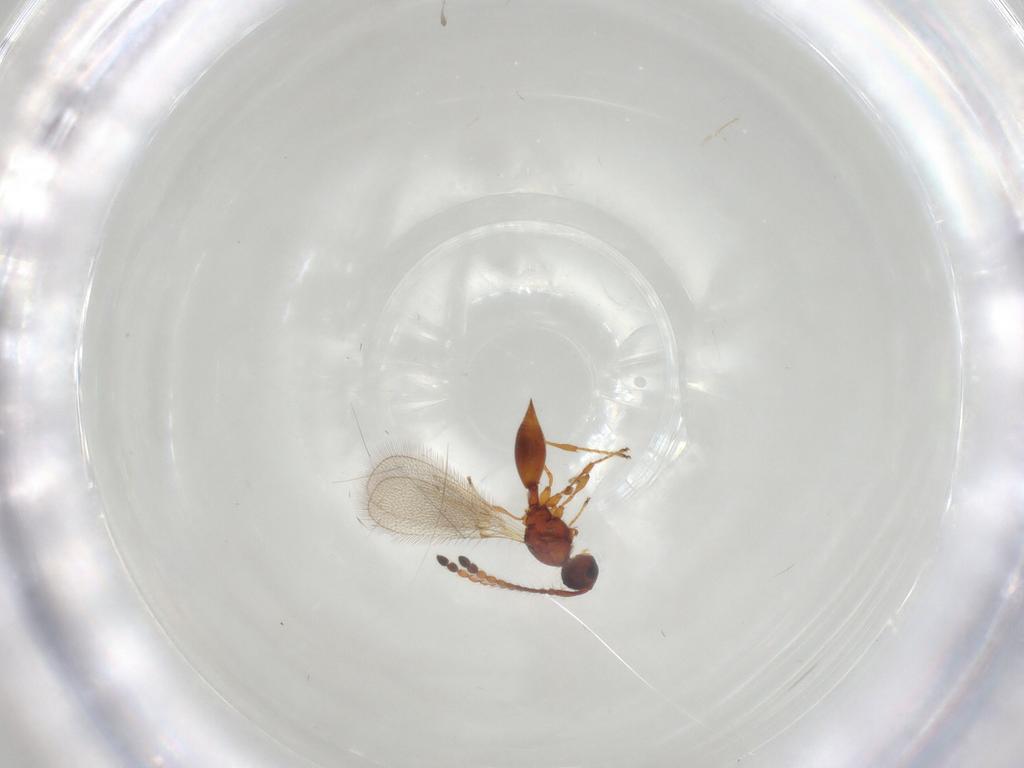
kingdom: Animalia
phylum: Arthropoda
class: Insecta
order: Hymenoptera
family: Diapriidae
